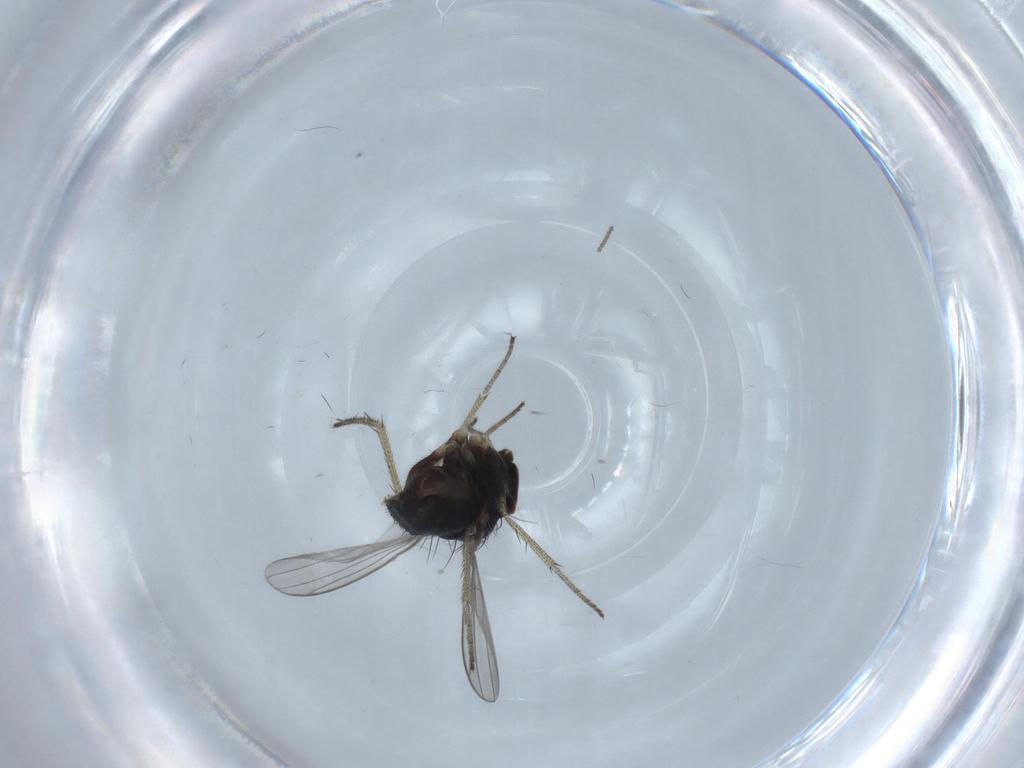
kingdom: Animalia
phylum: Arthropoda
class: Insecta
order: Diptera
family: Dolichopodidae
